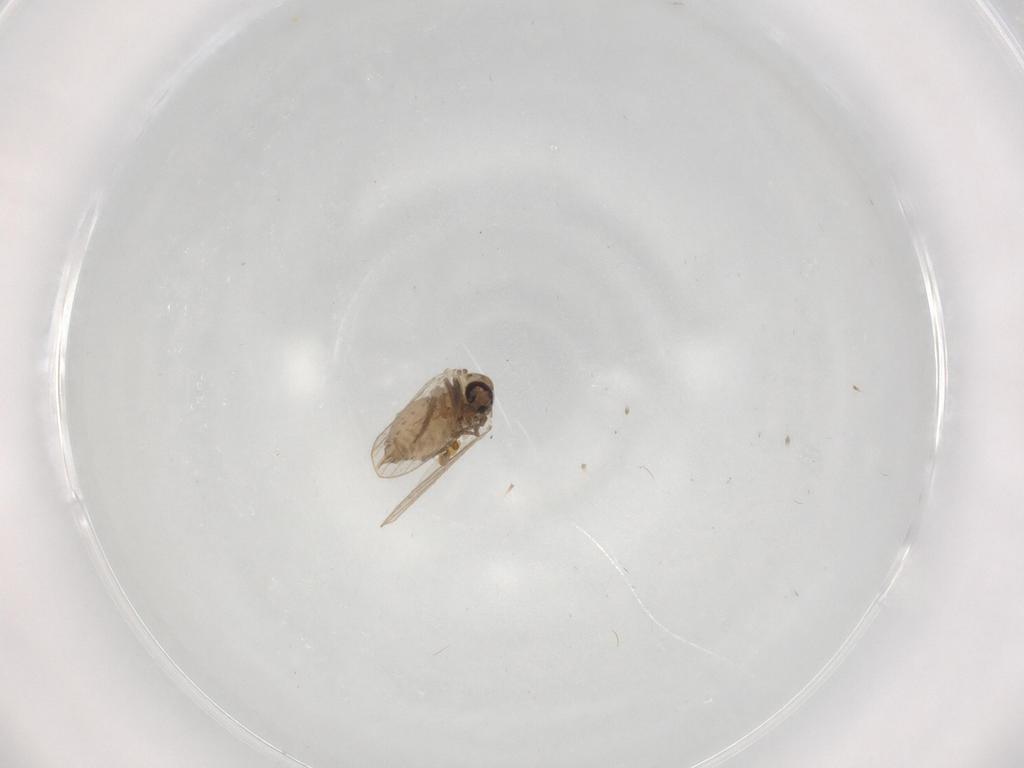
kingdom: Animalia
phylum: Arthropoda
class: Insecta
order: Diptera
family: Psychodidae
